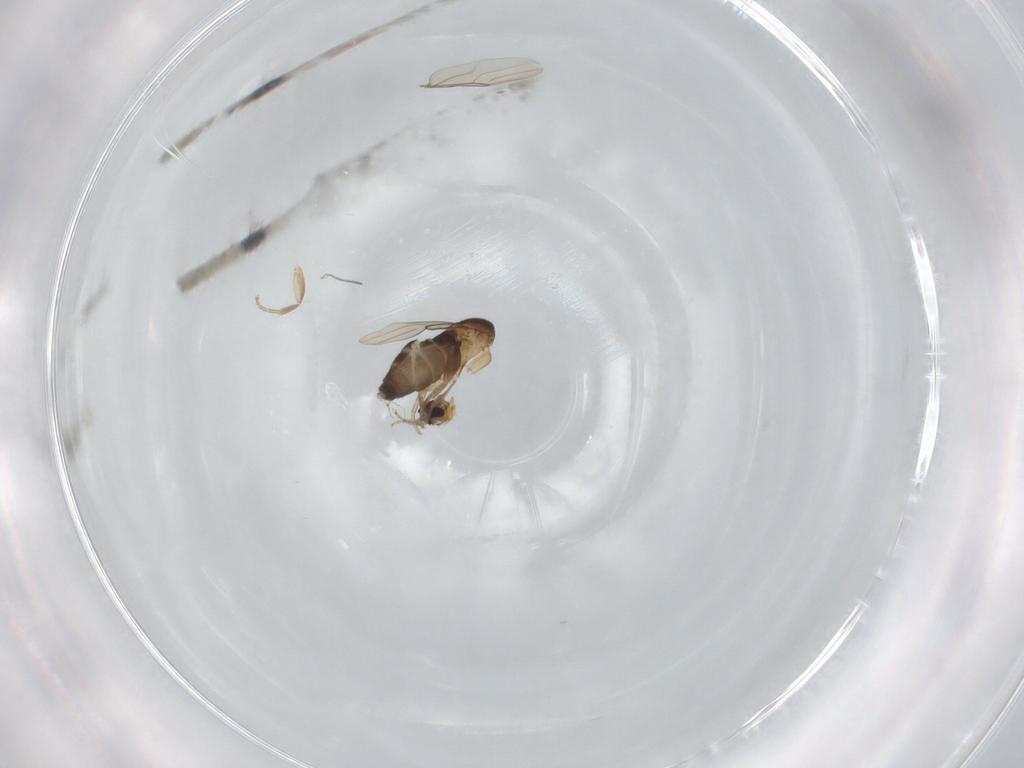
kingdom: Animalia
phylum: Arthropoda
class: Insecta
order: Diptera
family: Phoridae
